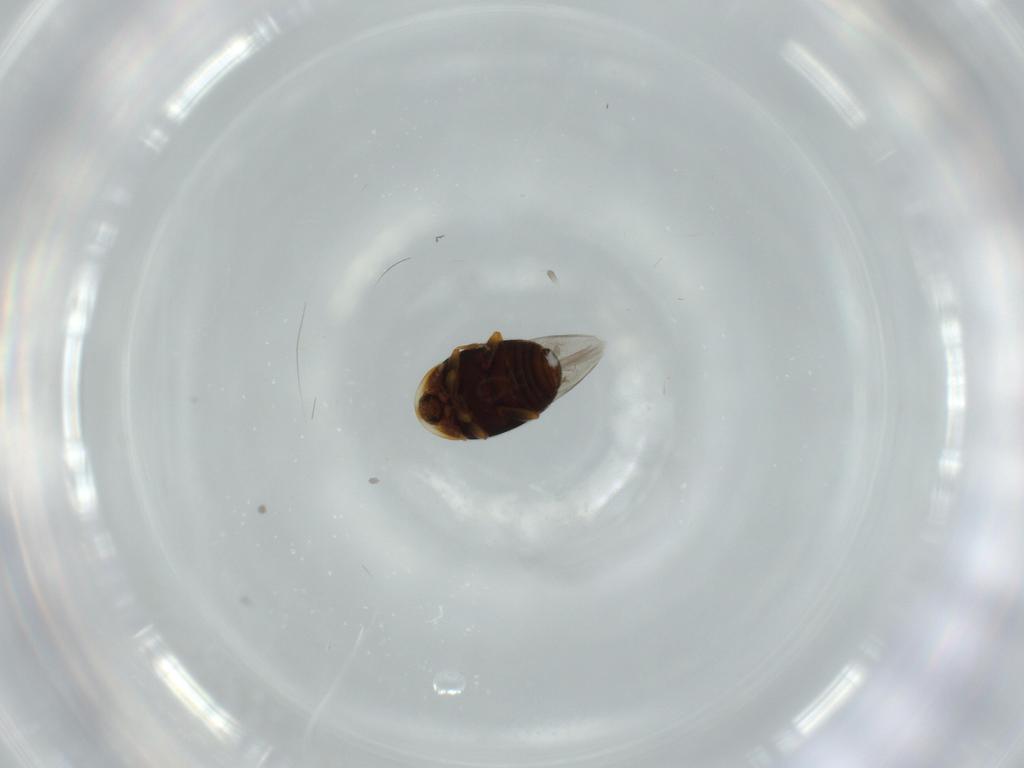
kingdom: Animalia
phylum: Arthropoda
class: Insecta
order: Coleoptera
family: Corylophidae
